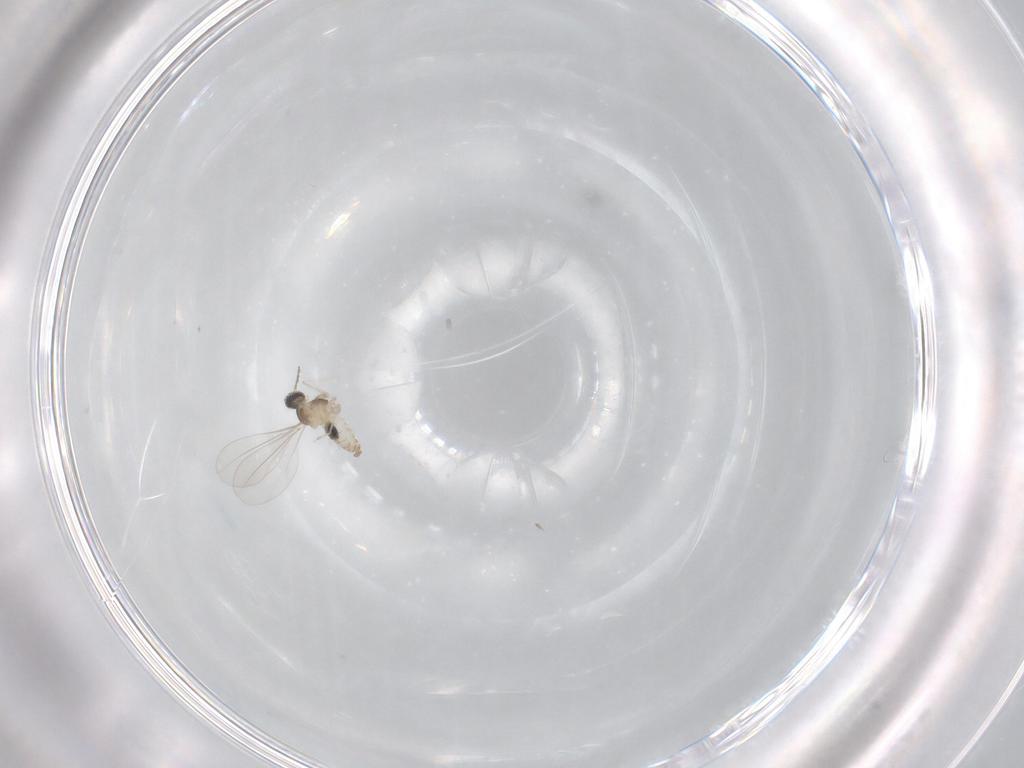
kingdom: Animalia
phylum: Arthropoda
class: Insecta
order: Diptera
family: Cecidomyiidae
